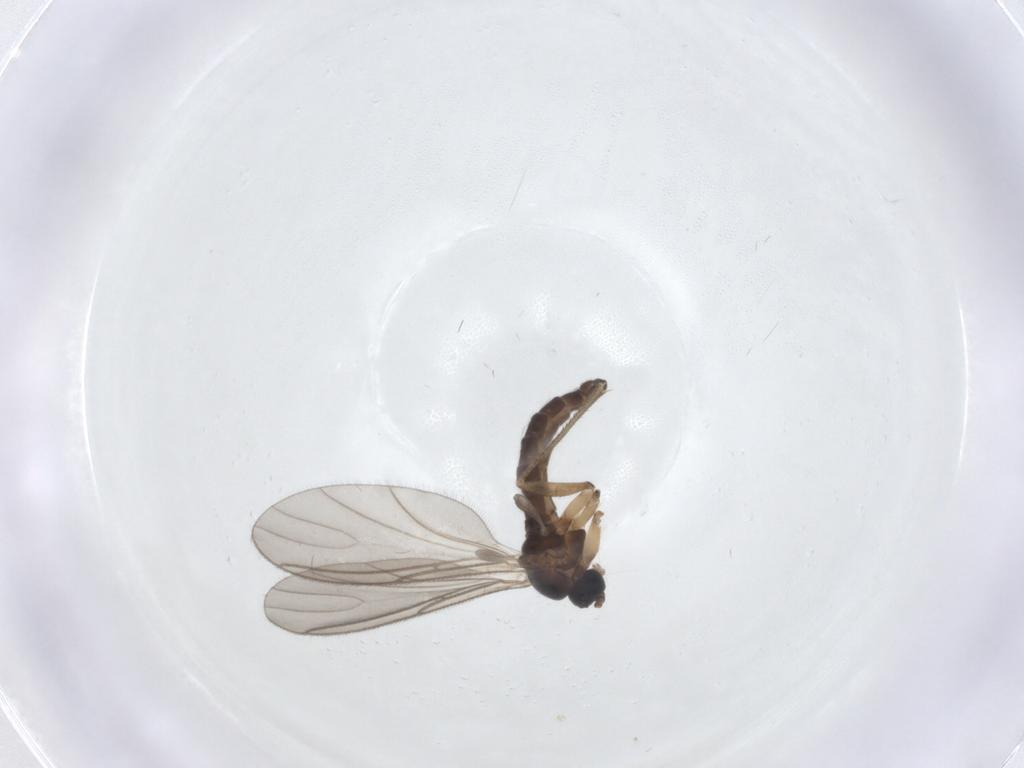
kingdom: Animalia
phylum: Arthropoda
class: Insecta
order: Diptera
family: Sciaridae
